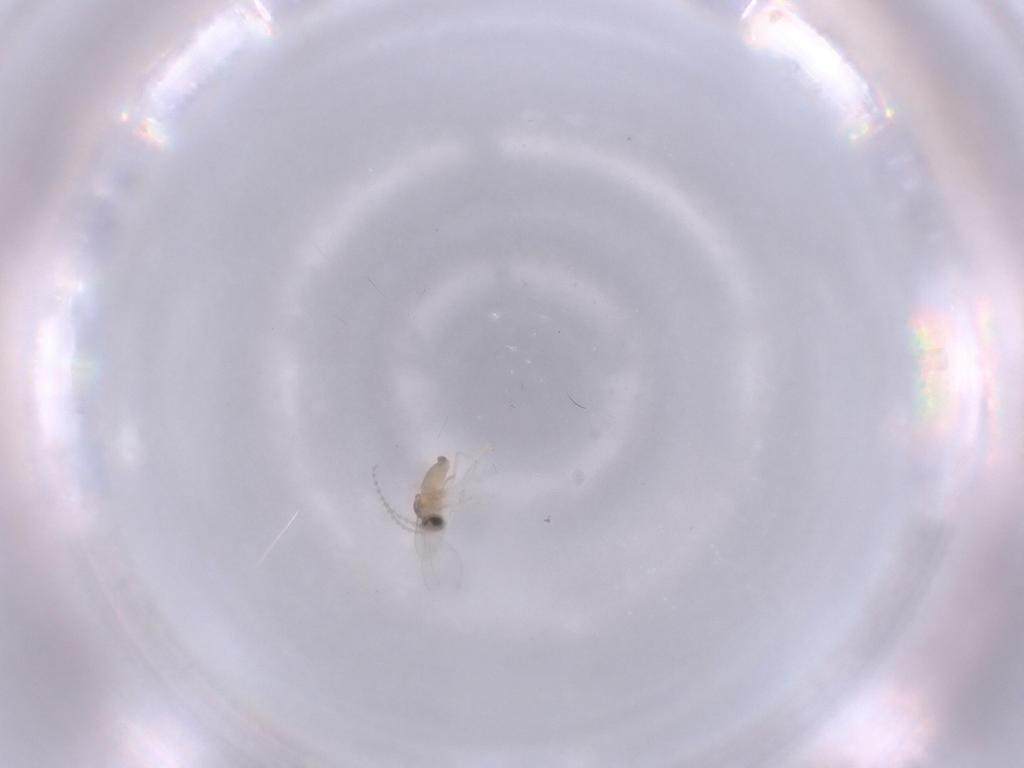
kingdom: Animalia
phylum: Arthropoda
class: Insecta
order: Diptera
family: Cecidomyiidae
